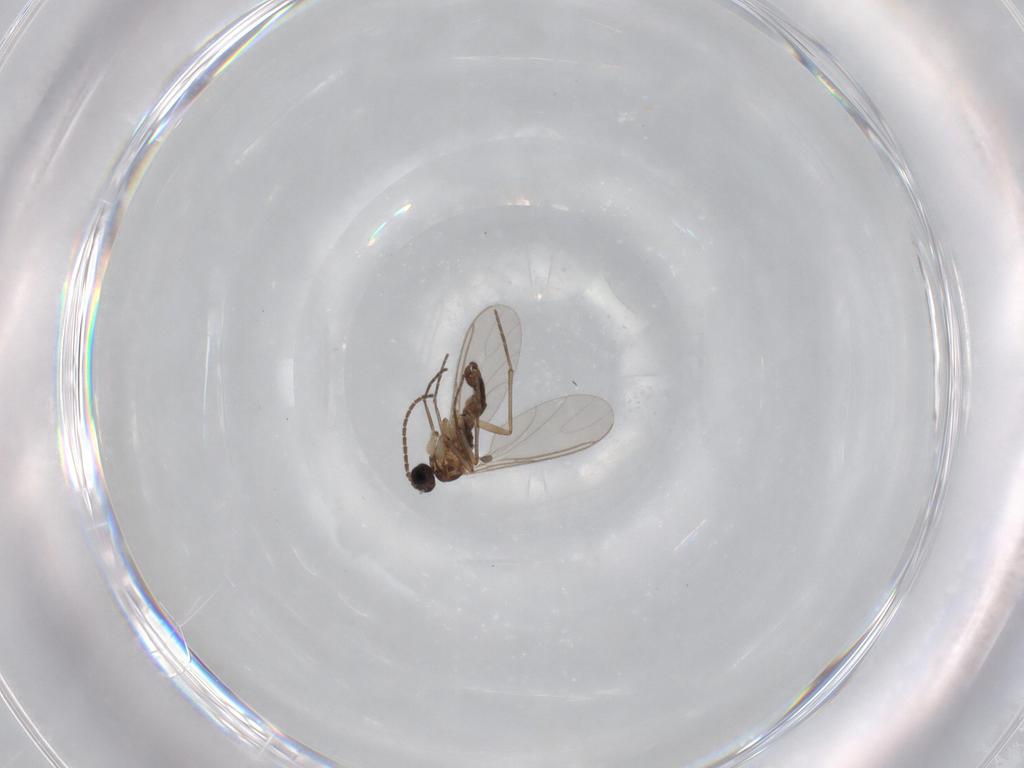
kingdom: Animalia
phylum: Arthropoda
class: Insecta
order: Diptera
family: Sciaridae
